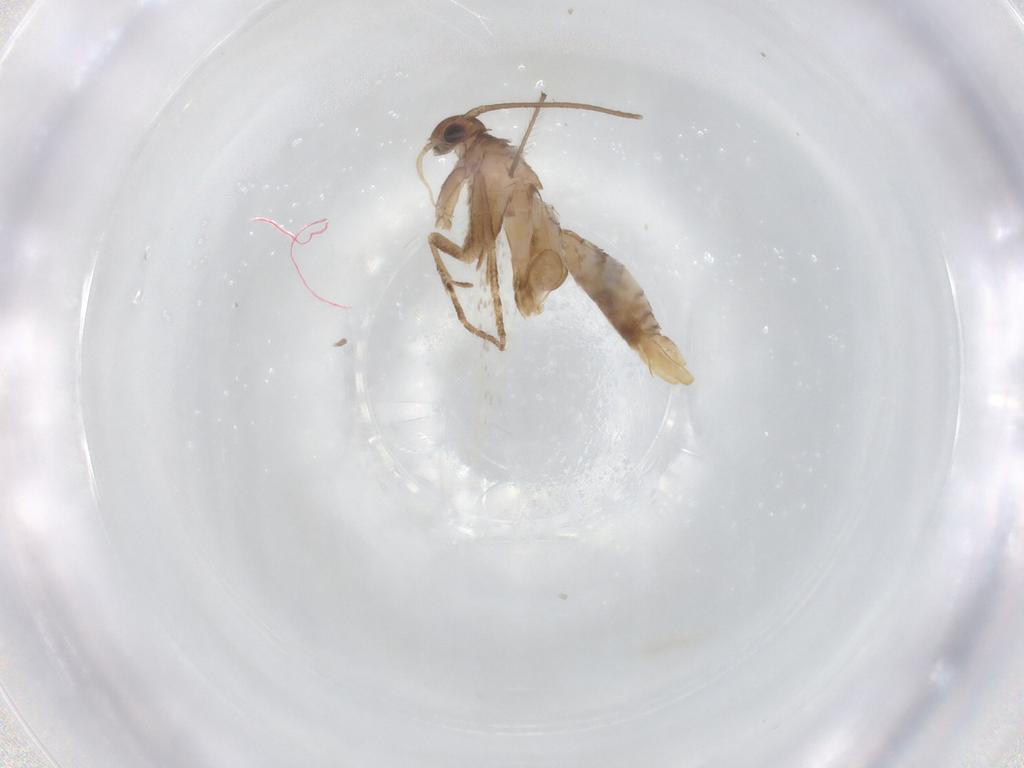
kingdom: Animalia
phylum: Arthropoda
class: Insecta
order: Lepidoptera
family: Elachistidae
